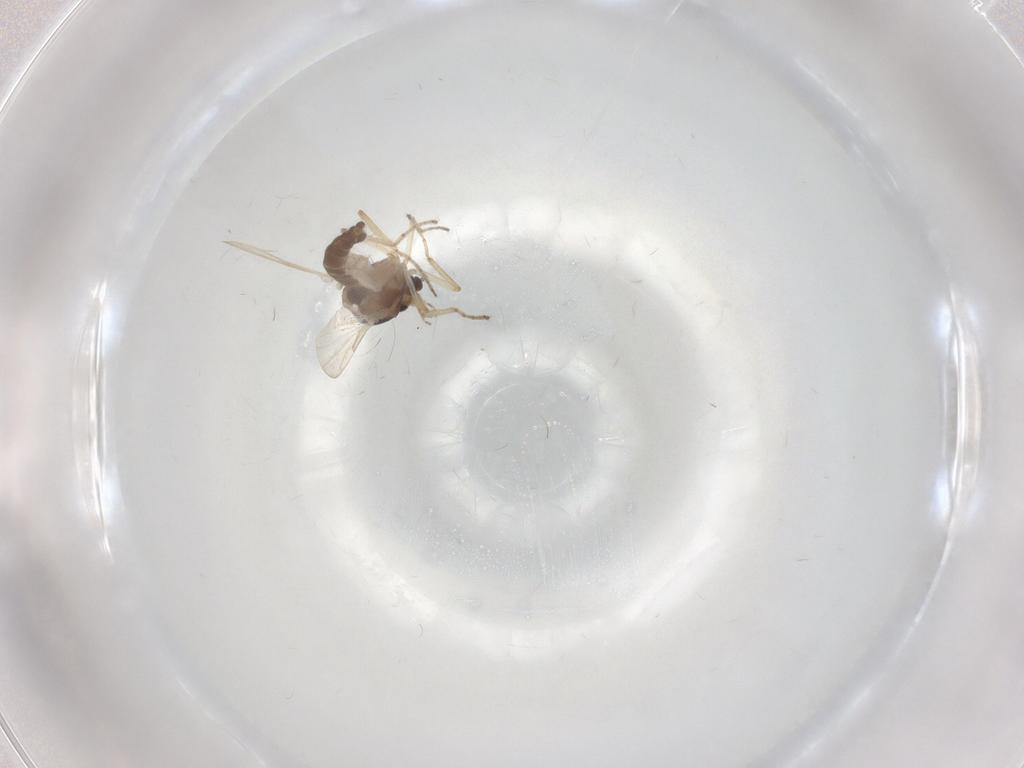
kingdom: Animalia
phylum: Arthropoda
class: Insecta
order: Diptera
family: Ceratopogonidae
